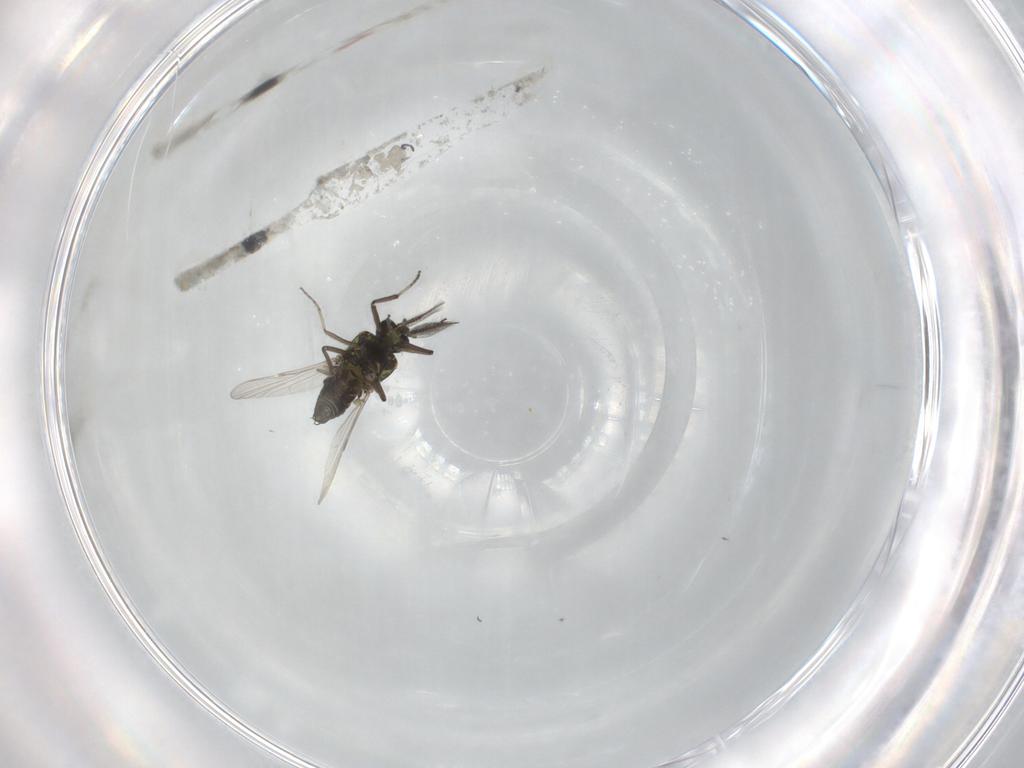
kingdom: Animalia
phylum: Arthropoda
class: Insecta
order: Diptera
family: Ceratopogonidae
